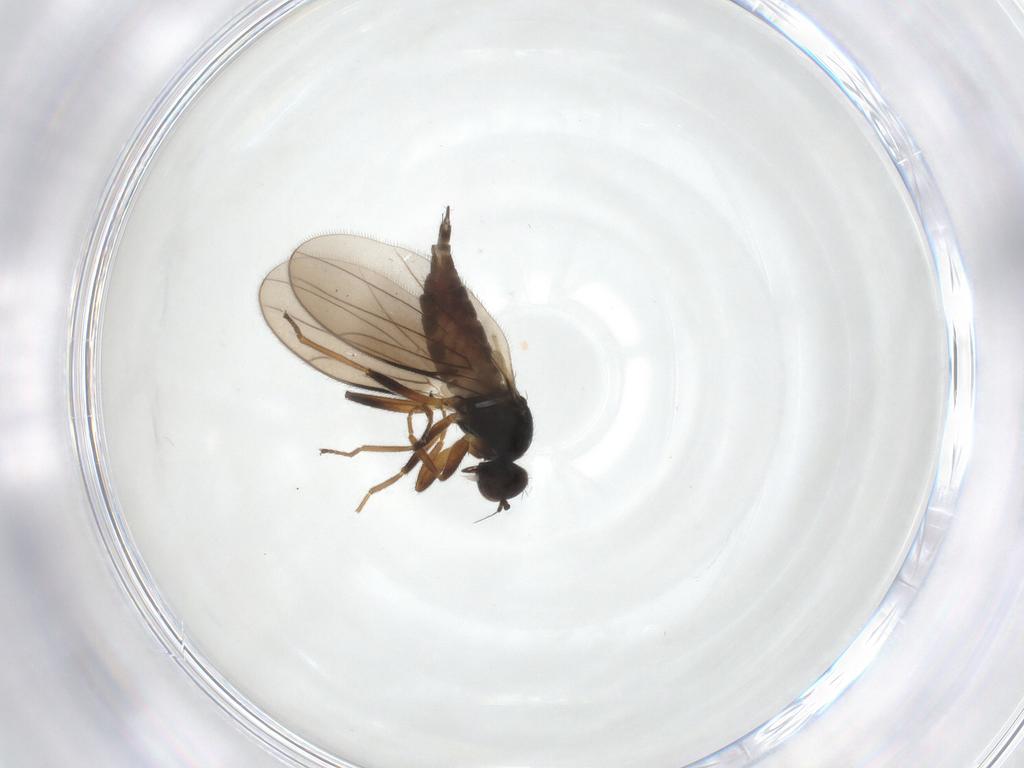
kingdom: Animalia
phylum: Arthropoda
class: Insecta
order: Diptera
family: Hybotidae
